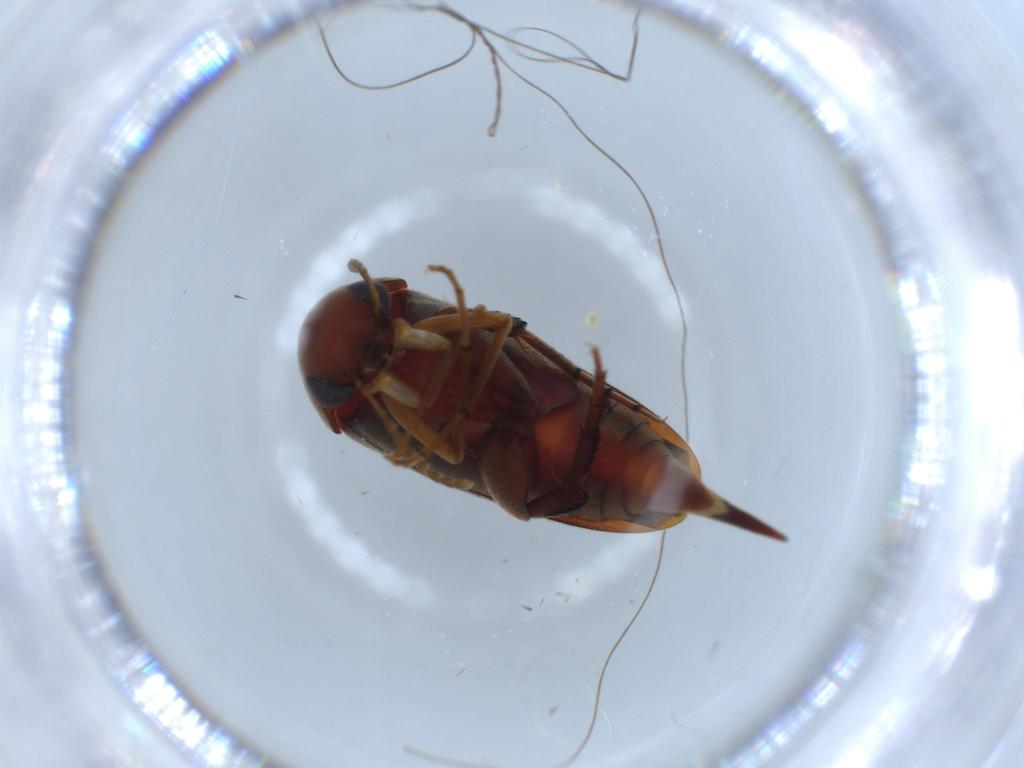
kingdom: Animalia
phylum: Arthropoda
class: Insecta
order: Coleoptera
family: Mordellidae
